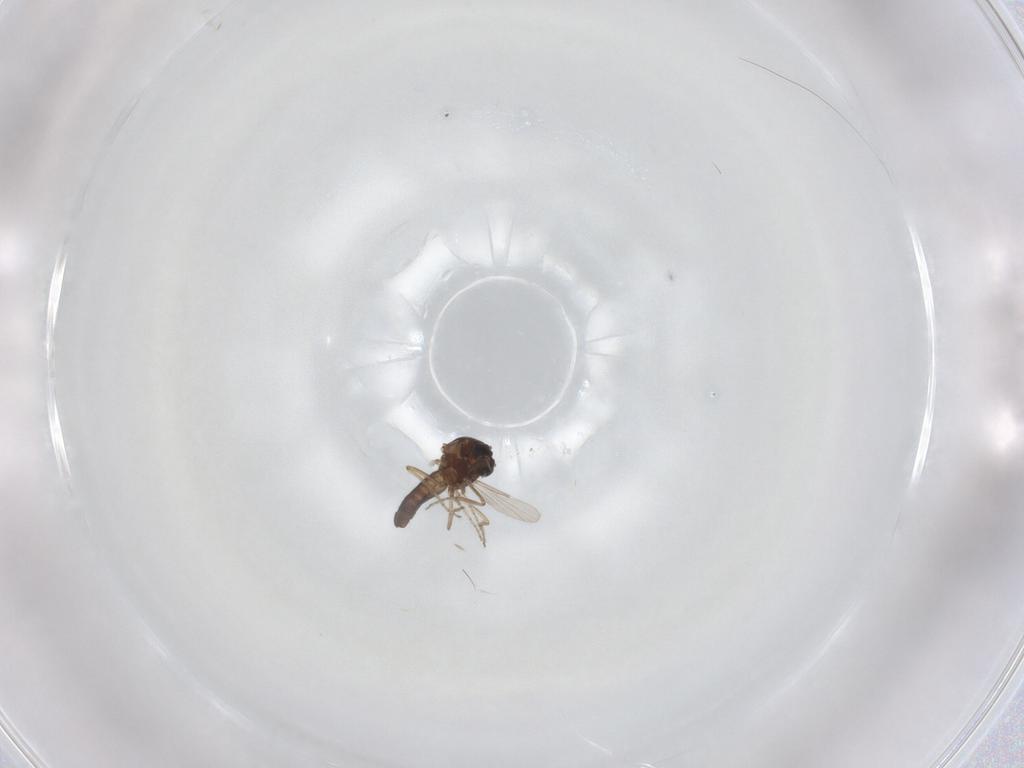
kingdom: Animalia
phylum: Arthropoda
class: Insecta
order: Diptera
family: Ceratopogonidae
